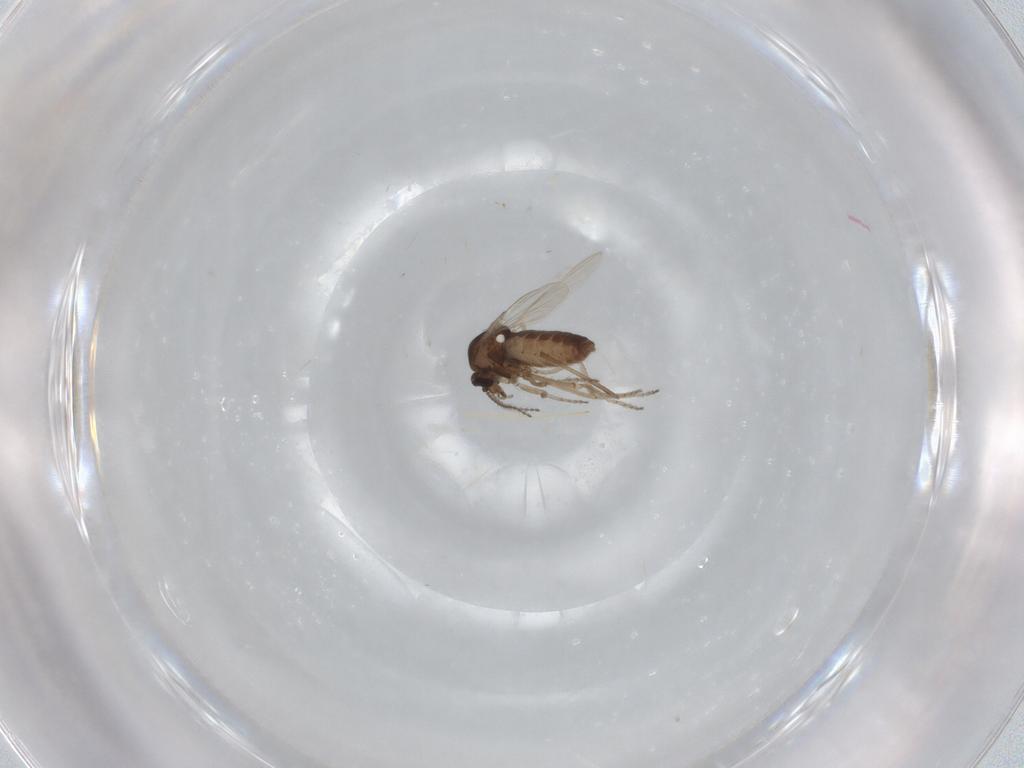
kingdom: Animalia
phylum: Arthropoda
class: Insecta
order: Diptera
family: Ceratopogonidae
